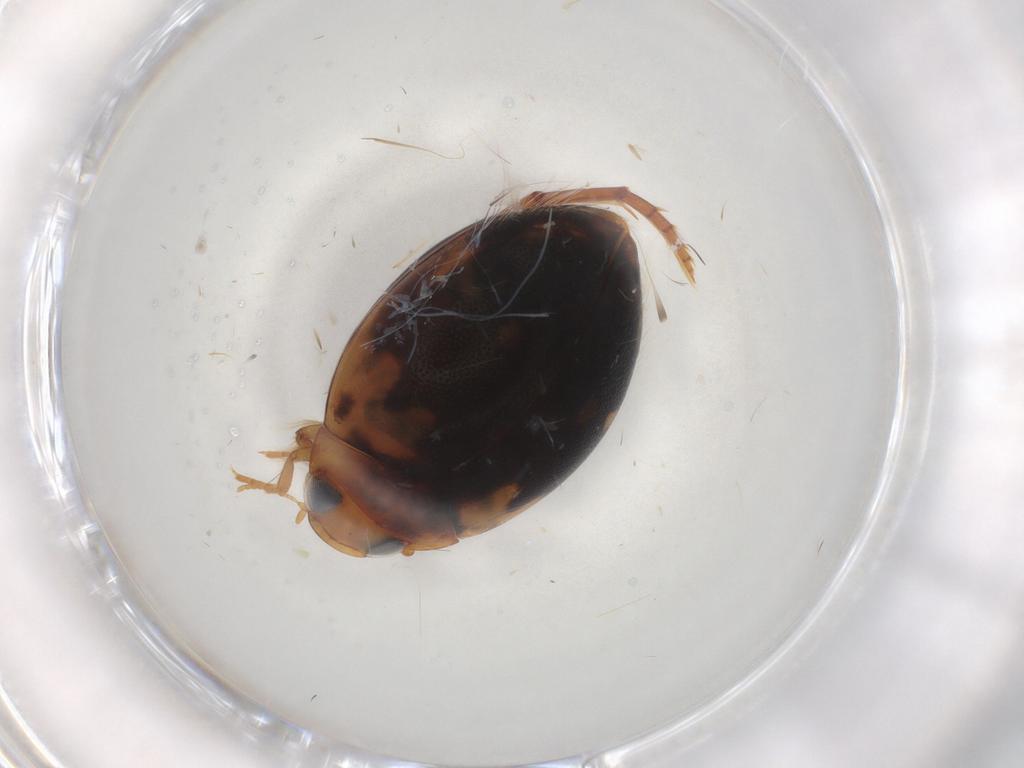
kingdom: Animalia
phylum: Arthropoda
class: Insecta
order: Coleoptera
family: Dytiscidae
